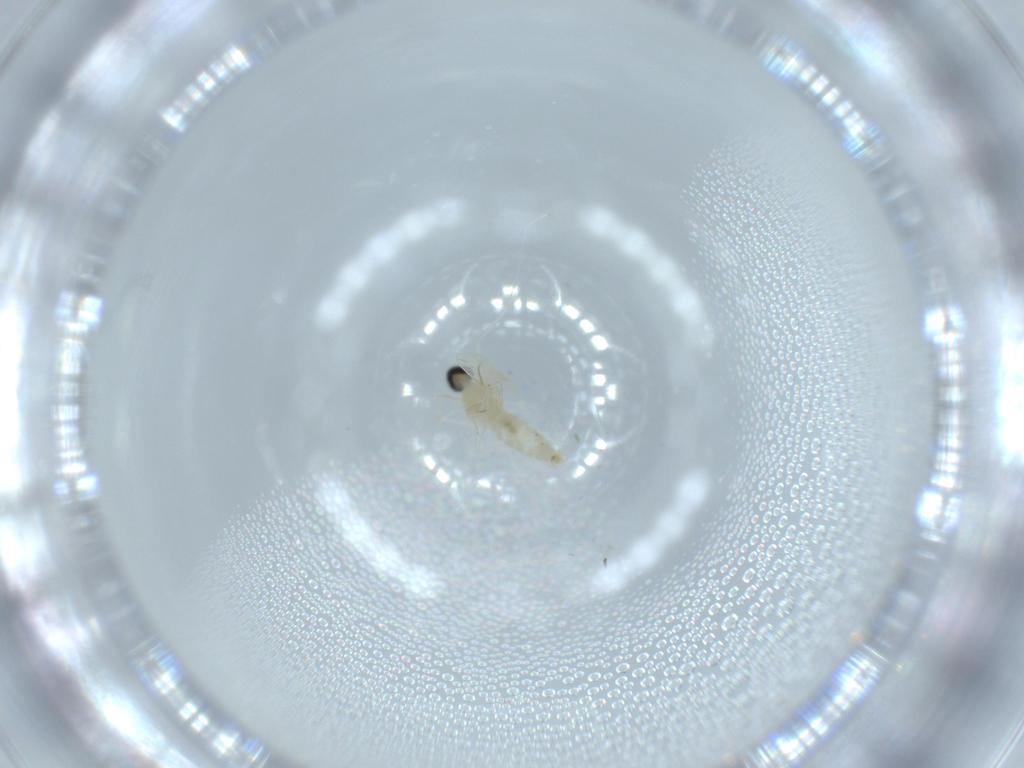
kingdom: Animalia
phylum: Arthropoda
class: Insecta
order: Diptera
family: Cecidomyiidae
